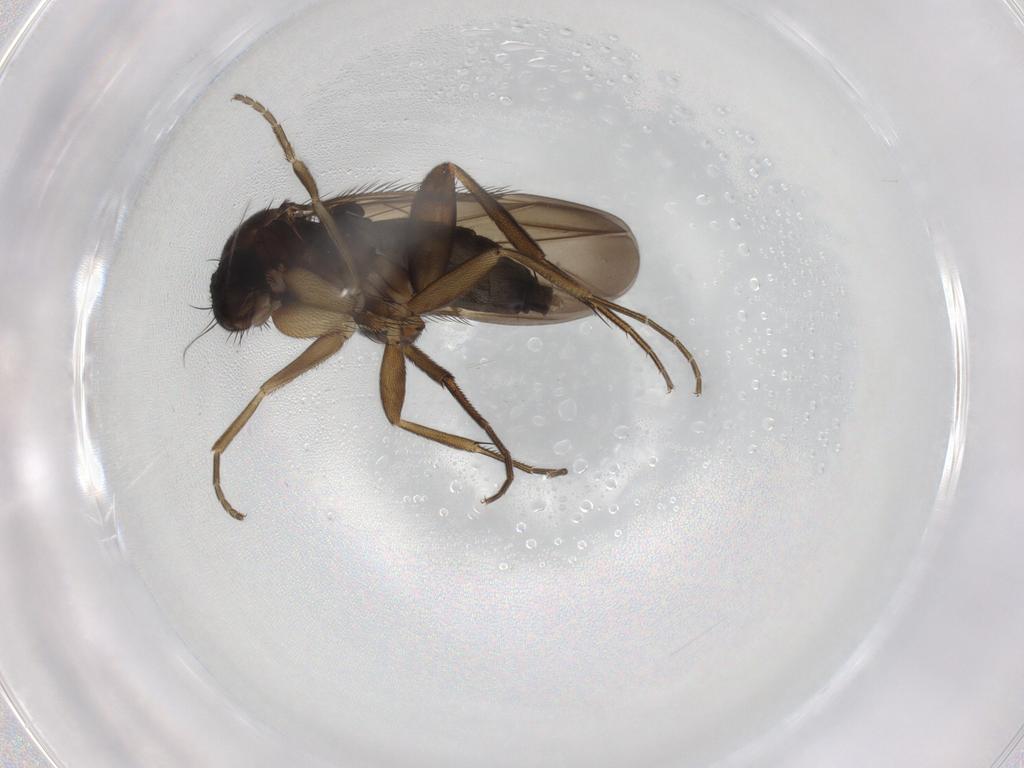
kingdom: Animalia
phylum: Arthropoda
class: Insecta
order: Diptera
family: Phoridae
